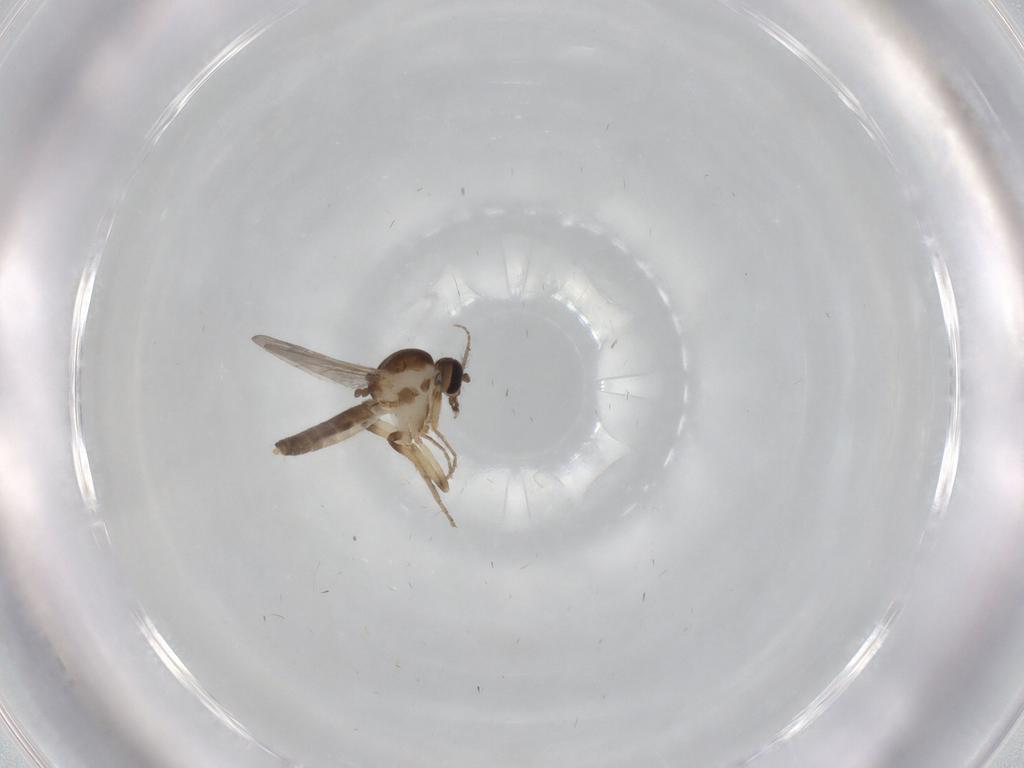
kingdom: Animalia
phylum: Arthropoda
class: Insecta
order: Diptera
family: Ceratopogonidae
